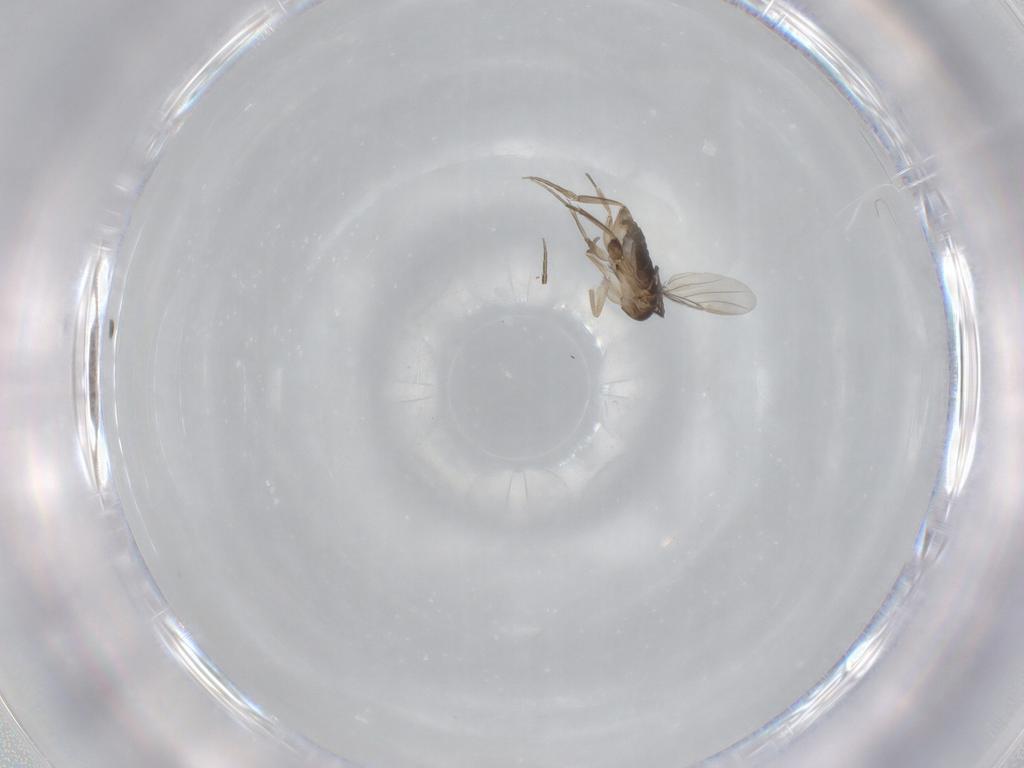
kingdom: Animalia
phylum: Arthropoda
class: Insecta
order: Diptera
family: Phoridae
